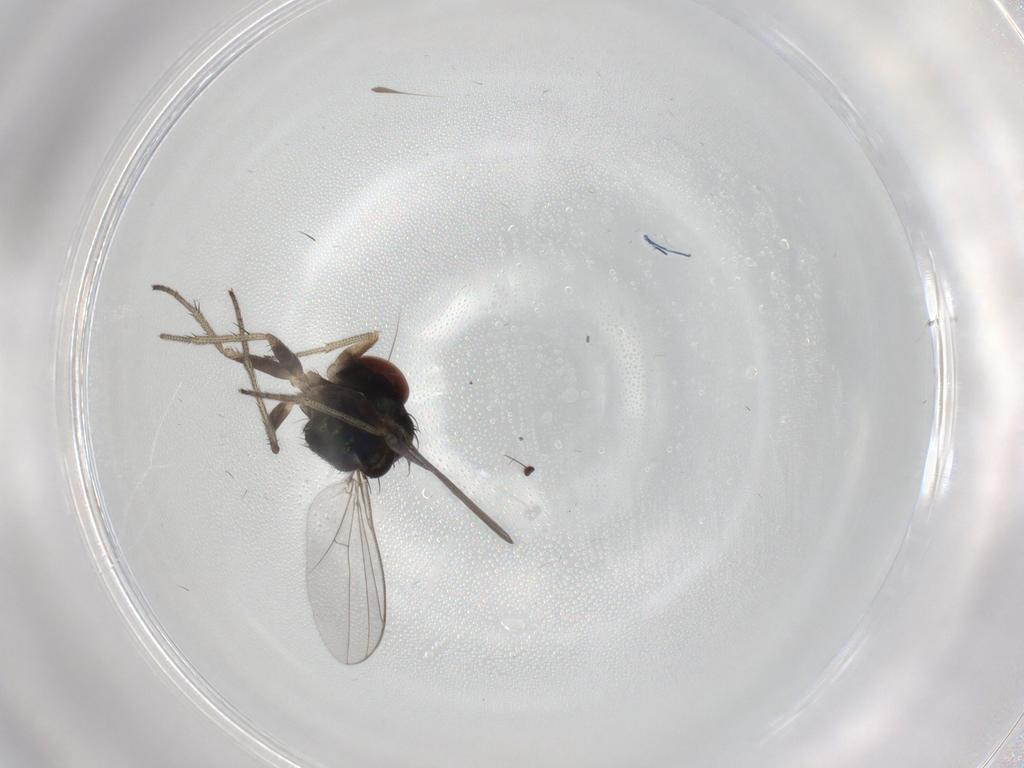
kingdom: Animalia
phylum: Arthropoda
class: Insecta
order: Diptera
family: Dolichopodidae
